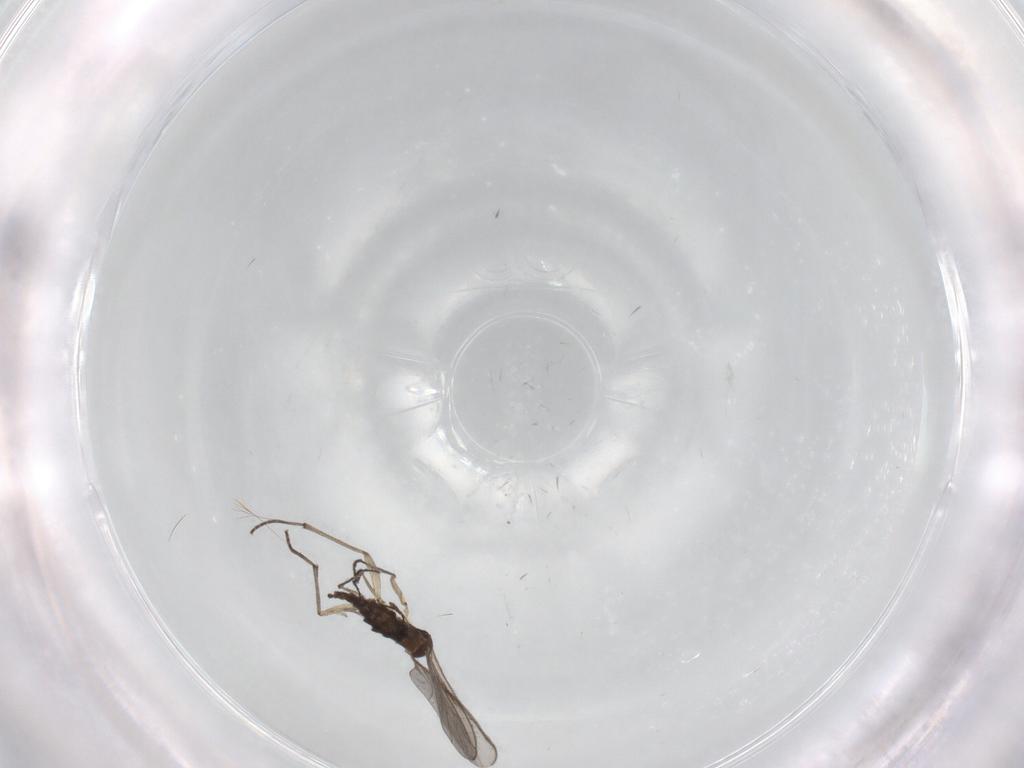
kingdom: Animalia
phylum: Arthropoda
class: Insecta
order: Diptera
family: Sciaridae
